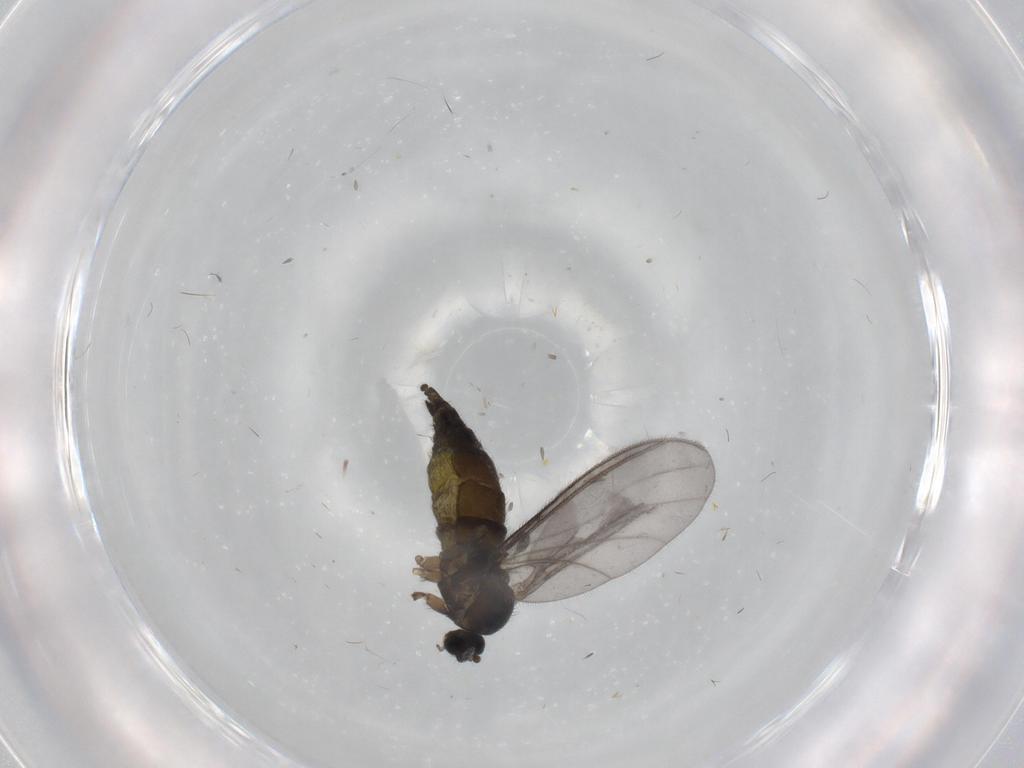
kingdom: Animalia
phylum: Arthropoda
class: Insecta
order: Diptera
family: Sciaridae
